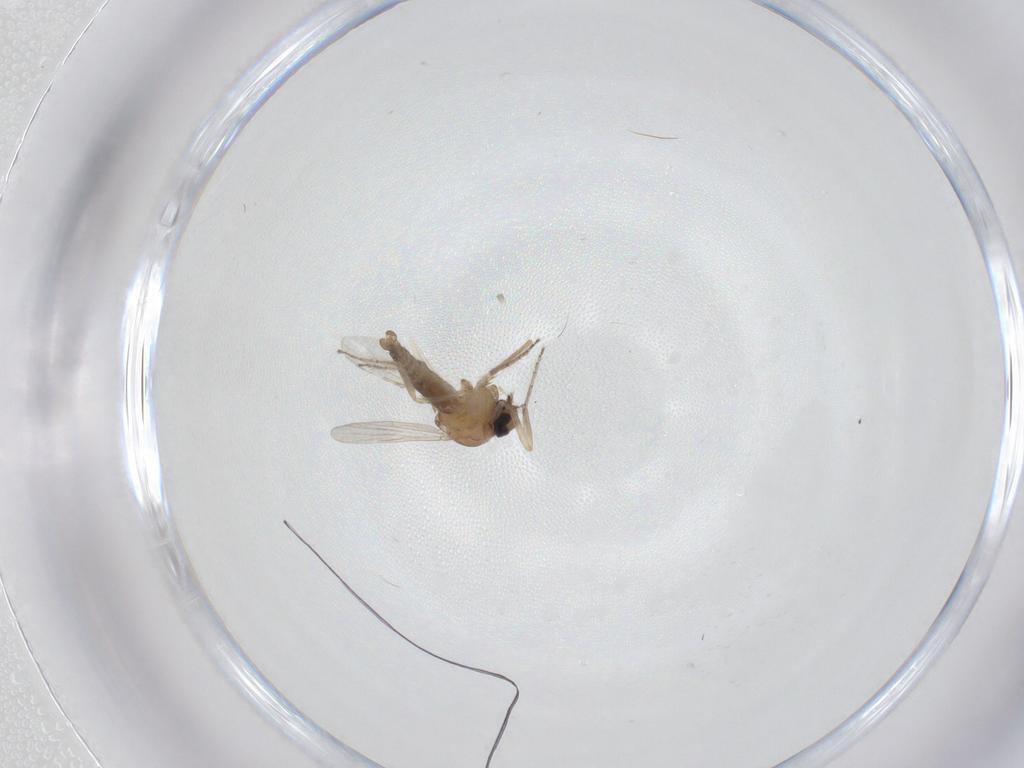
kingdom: Animalia
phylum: Arthropoda
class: Insecta
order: Diptera
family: Ceratopogonidae
